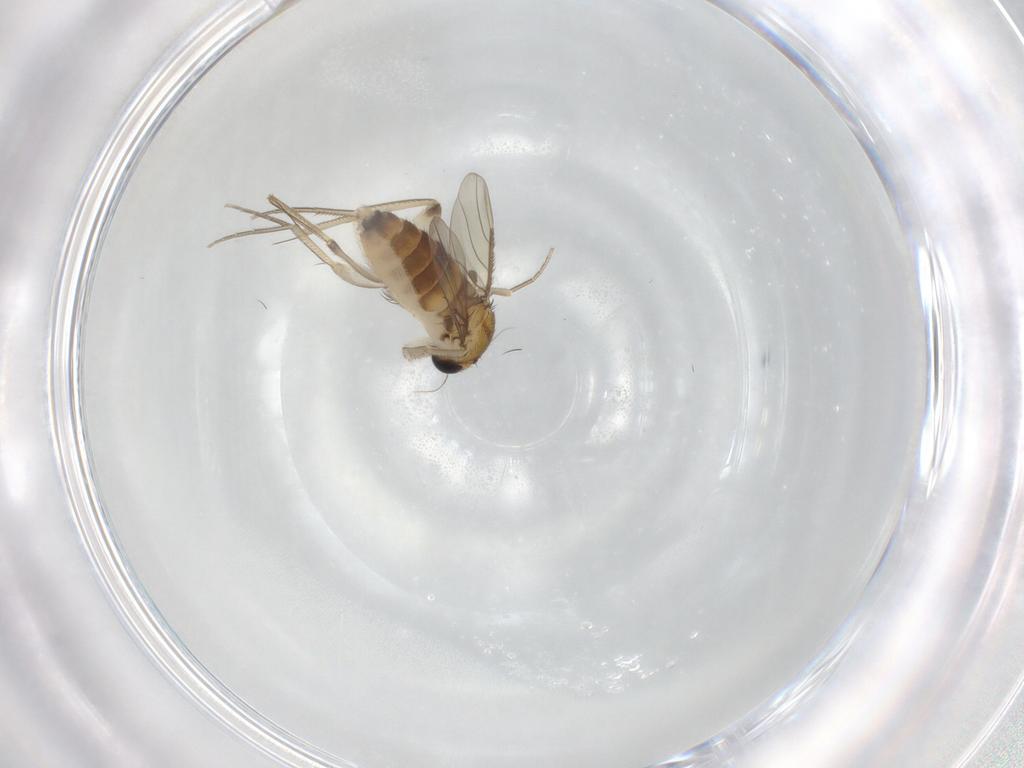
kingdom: Animalia
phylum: Arthropoda
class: Insecta
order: Diptera
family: Phoridae
